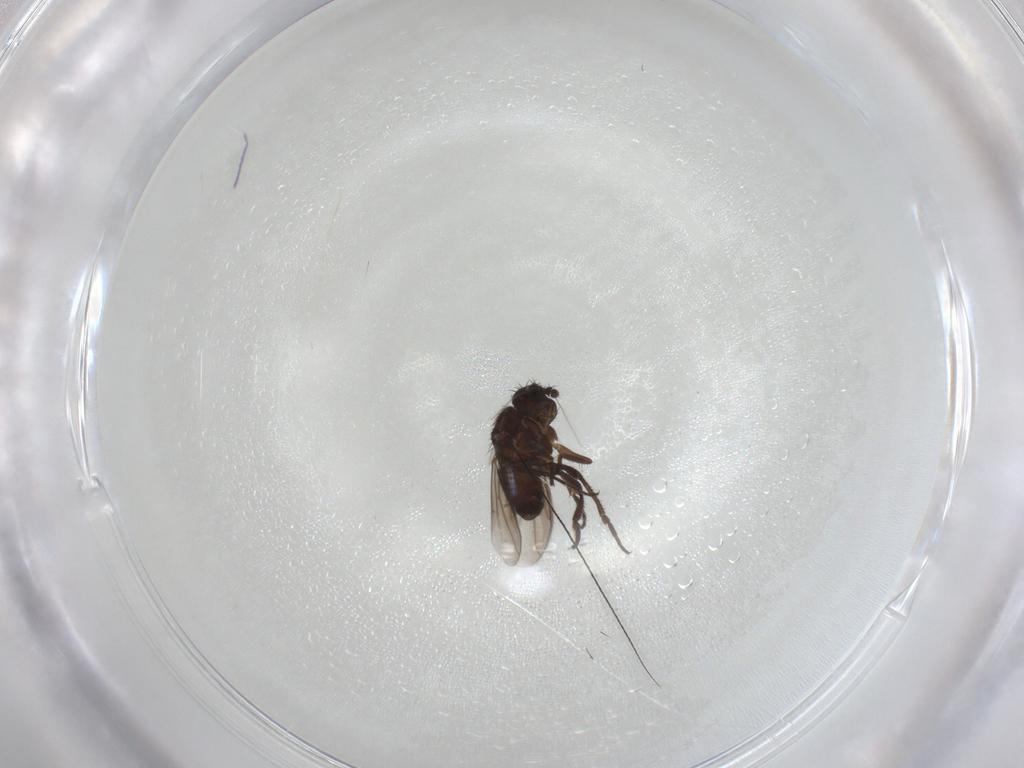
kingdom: Animalia
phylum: Arthropoda
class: Insecta
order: Diptera
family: Sphaeroceridae
